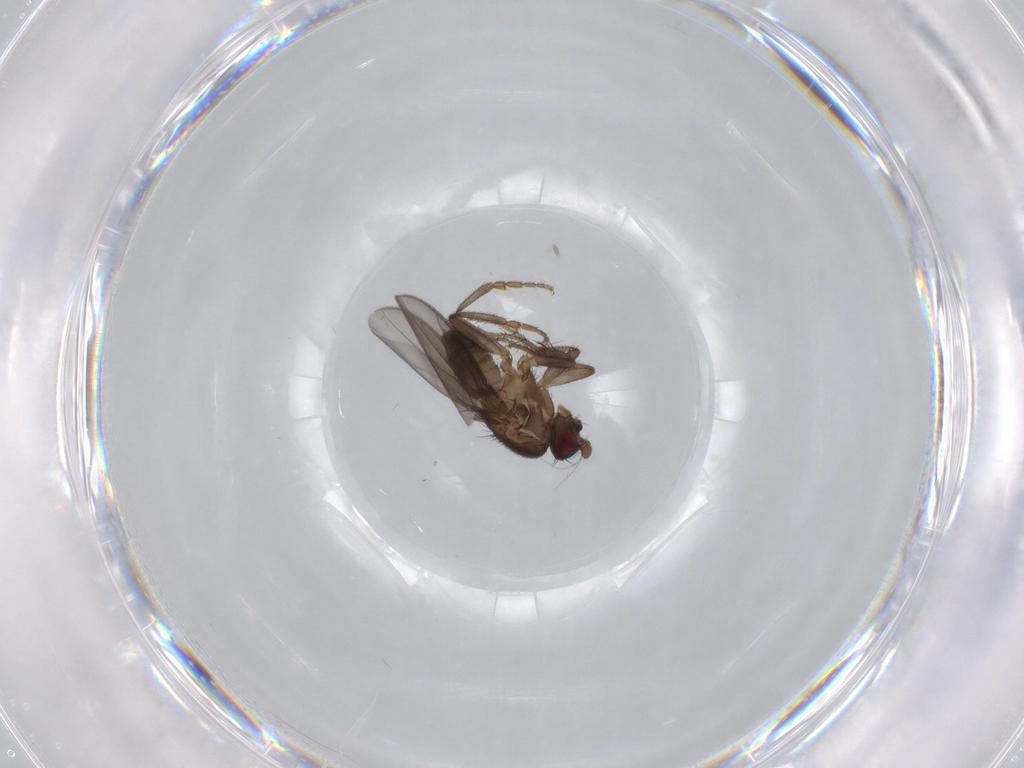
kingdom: Animalia
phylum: Arthropoda
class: Insecta
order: Diptera
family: Sphaeroceridae
